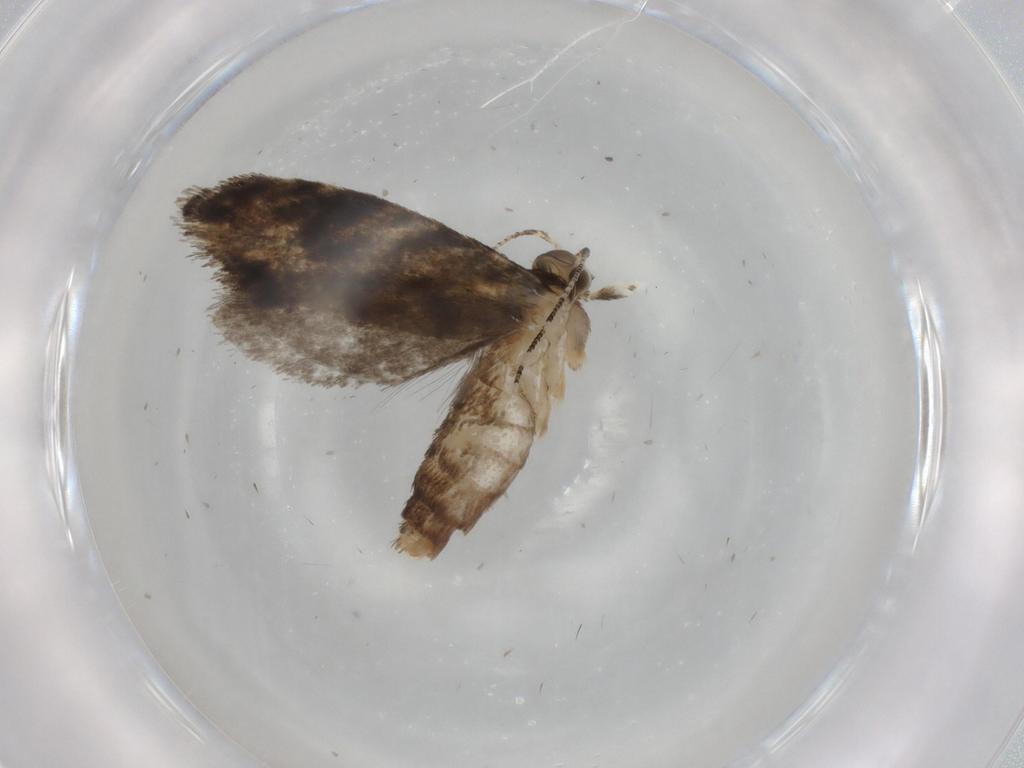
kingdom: Animalia
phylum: Arthropoda
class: Insecta
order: Lepidoptera
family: Tineidae
